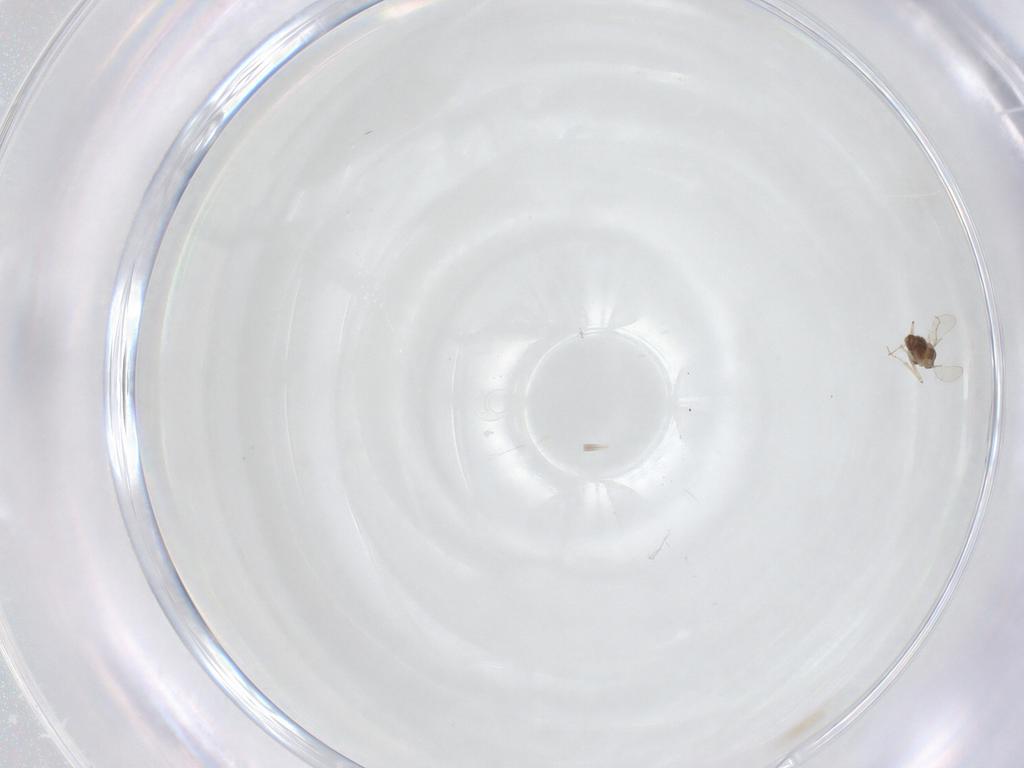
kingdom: Animalia
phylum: Arthropoda
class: Insecta
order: Diptera
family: Chironomidae
